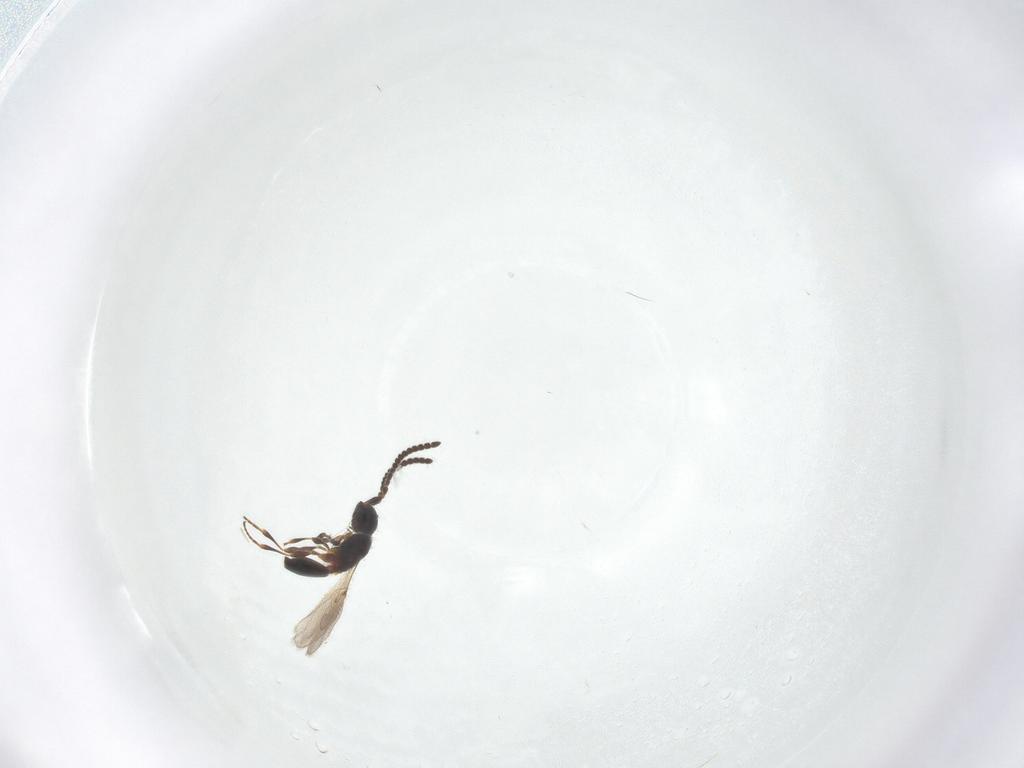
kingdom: Animalia
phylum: Arthropoda
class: Insecta
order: Hymenoptera
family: Diapriidae
